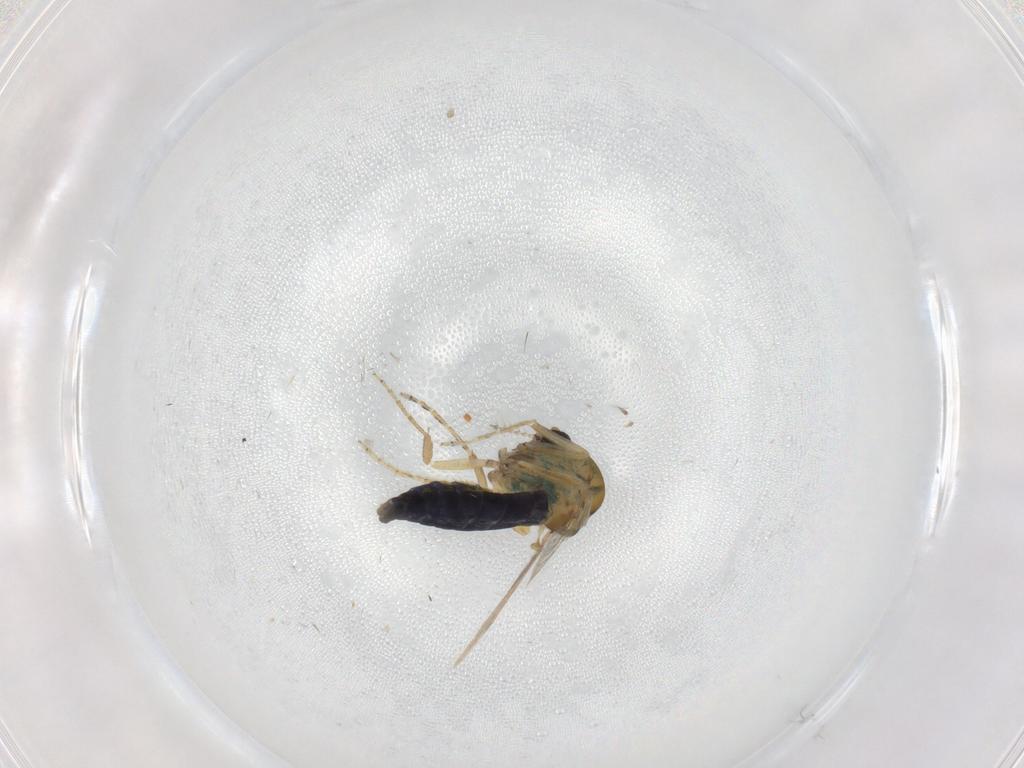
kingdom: Animalia
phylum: Arthropoda
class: Insecta
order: Diptera
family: Ceratopogonidae
